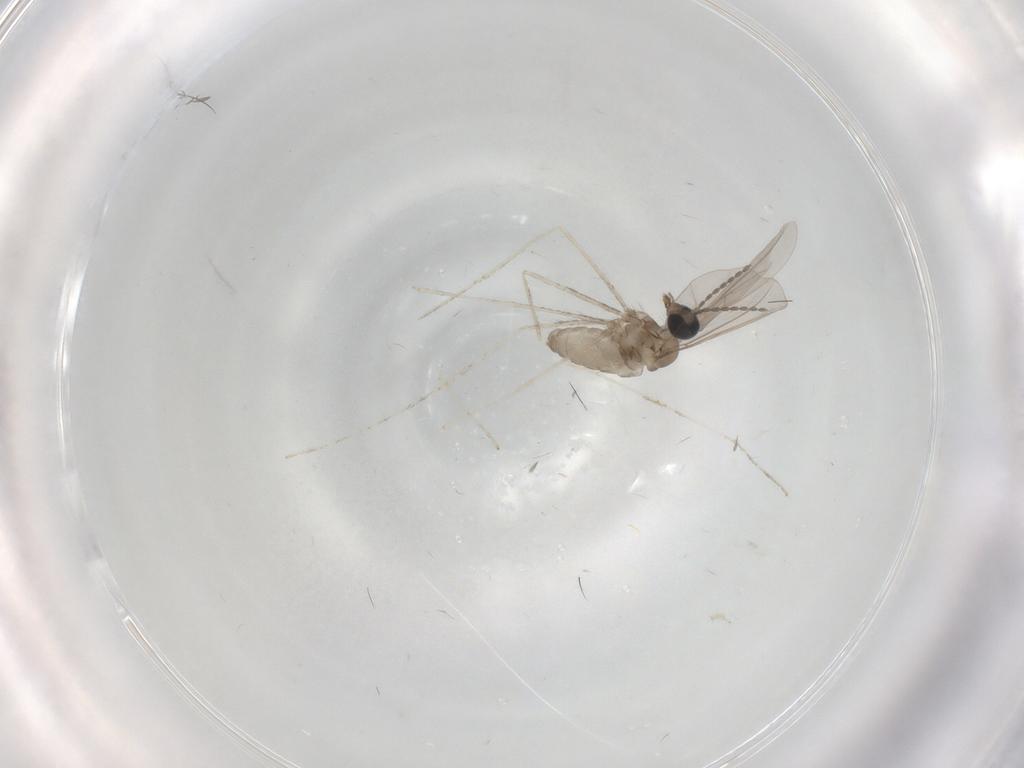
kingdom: Animalia
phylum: Arthropoda
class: Insecta
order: Diptera
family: Cecidomyiidae
